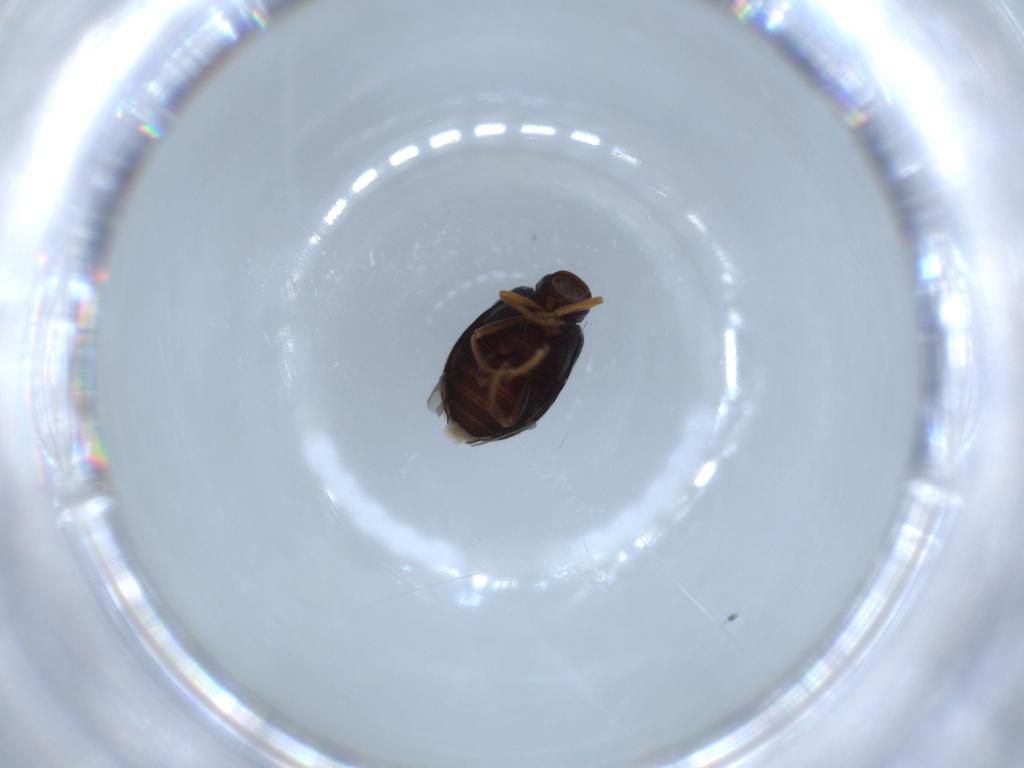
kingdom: Animalia
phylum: Arthropoda
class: Insecta
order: Coleoptera
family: Aderidae
